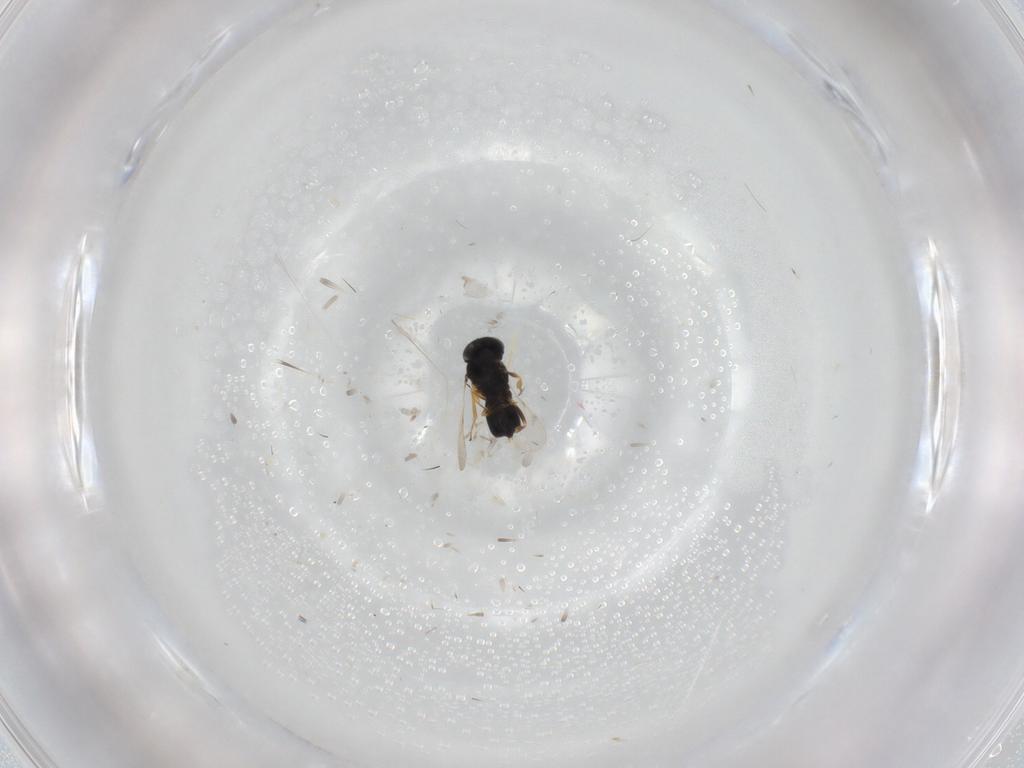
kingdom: Animalia
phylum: Arthropoda
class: Insecta
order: Hymenoptera
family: Scelionidae
